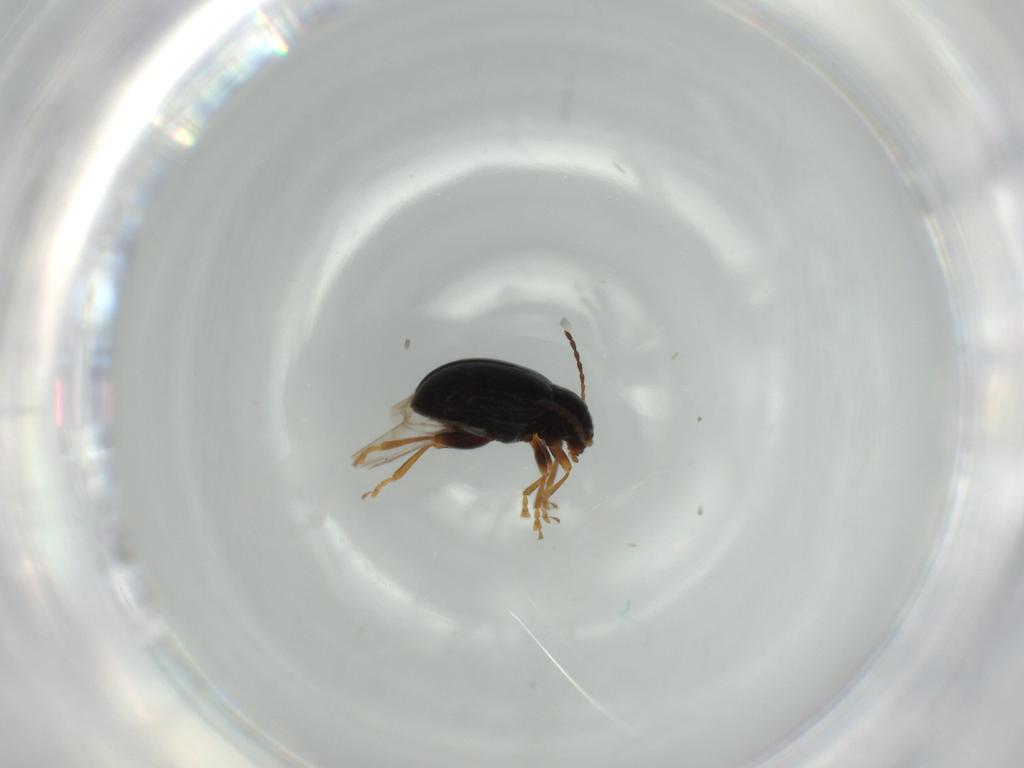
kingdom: Animalia
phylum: Arthropoda
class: Insecta
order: Coleoptera
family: Chrysomelidae
